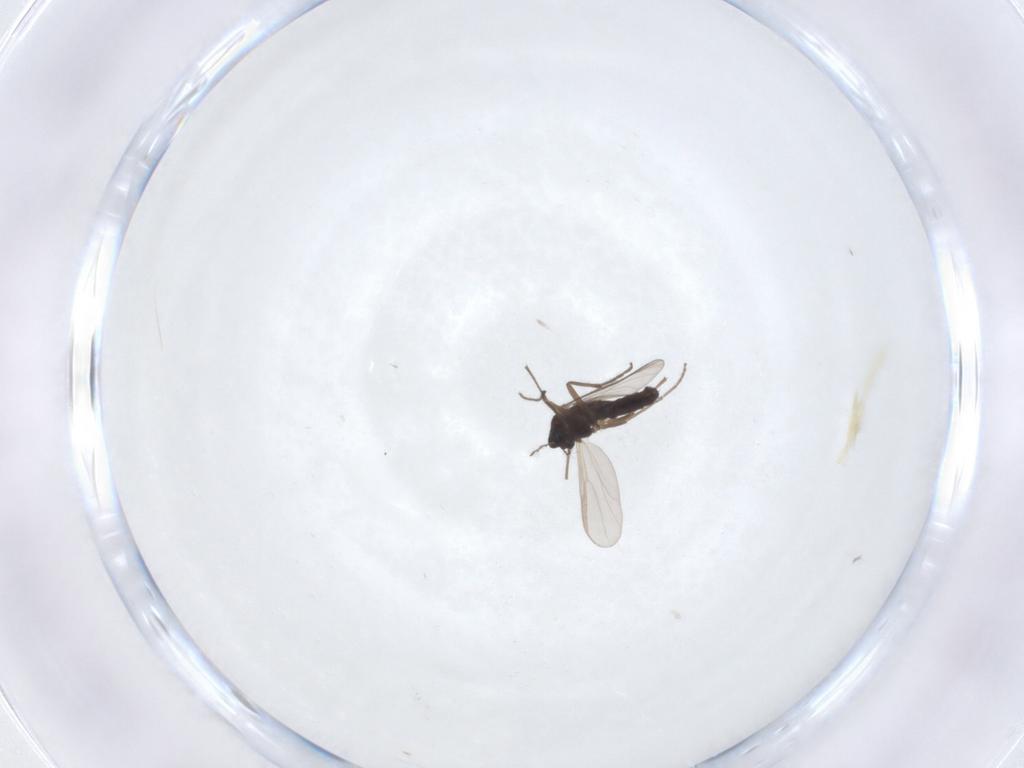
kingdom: Animalia
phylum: Arthropoda
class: Insecta
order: Diptera
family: Chironomidae
